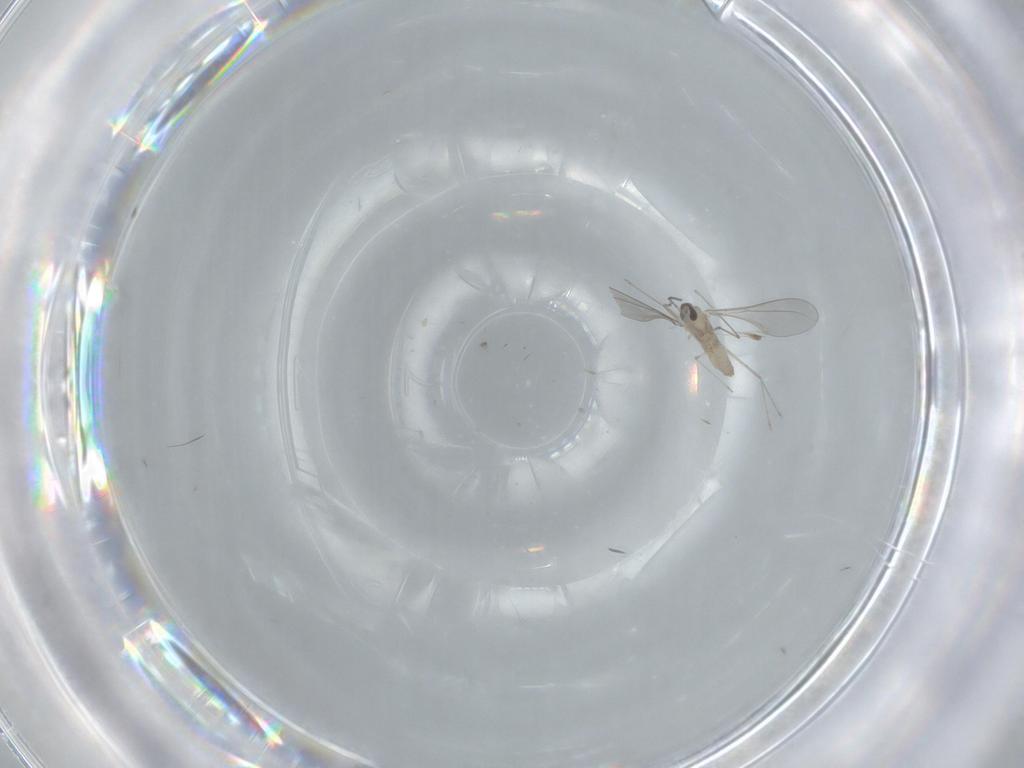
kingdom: Animalia
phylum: Arthropoda
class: Insecta
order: Diptera
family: Cecidomyiidae
